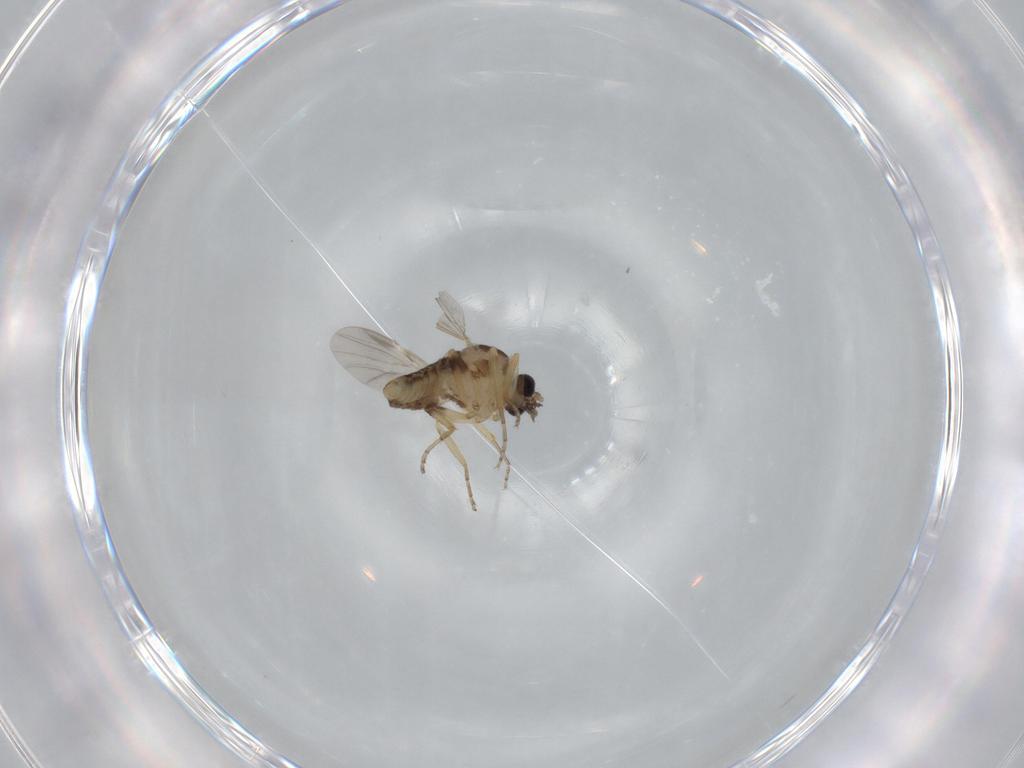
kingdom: Animalia
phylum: Arthropoda
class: Insecta
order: Diptera
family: Ceratopogonidae
